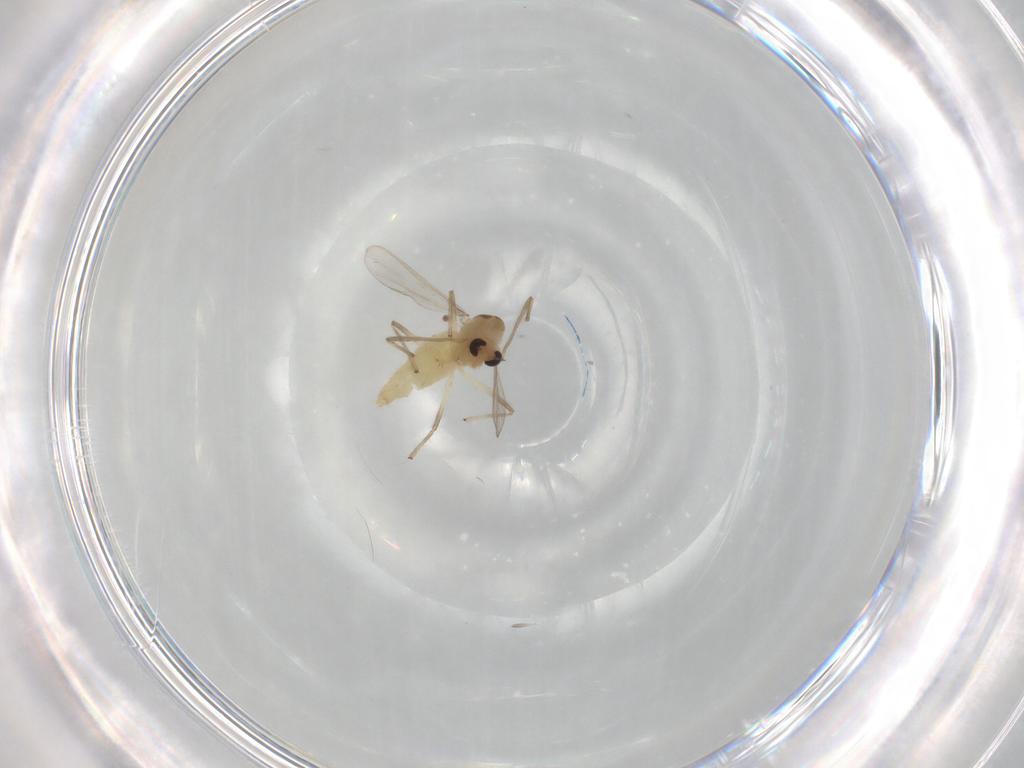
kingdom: Animalia
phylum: Arthropoda
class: Insecta
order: Diptera
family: Chironomidae
